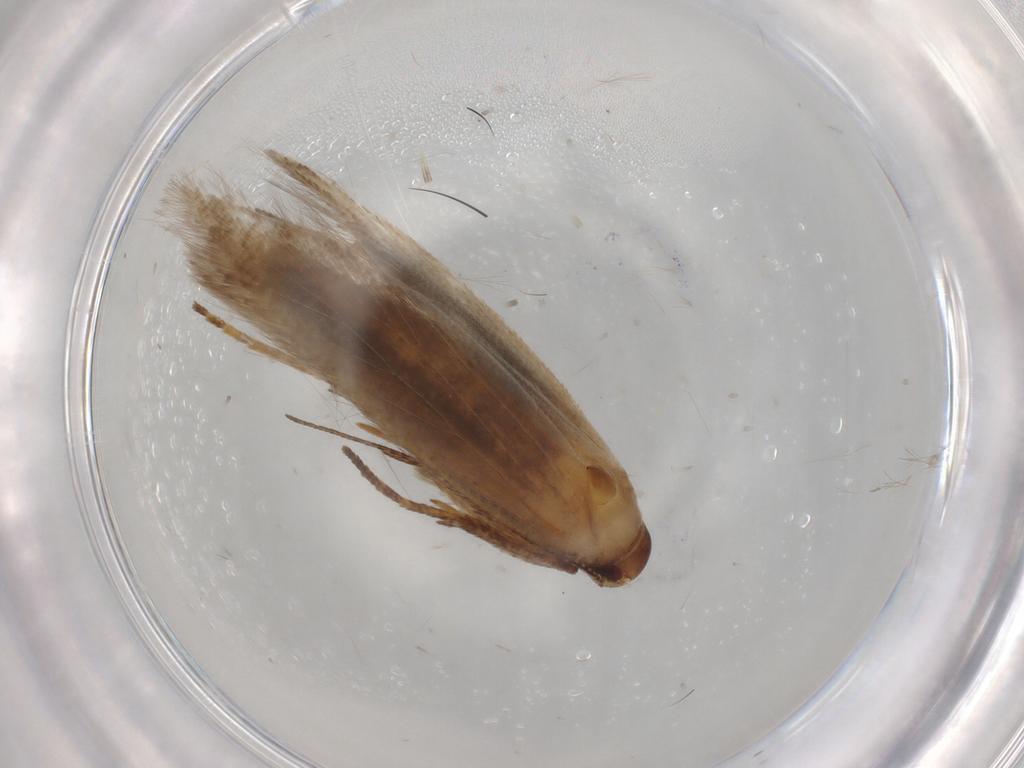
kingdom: Animalia
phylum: Arthropoda
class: Insecta
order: Lepidoptera
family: Gelechiidae
